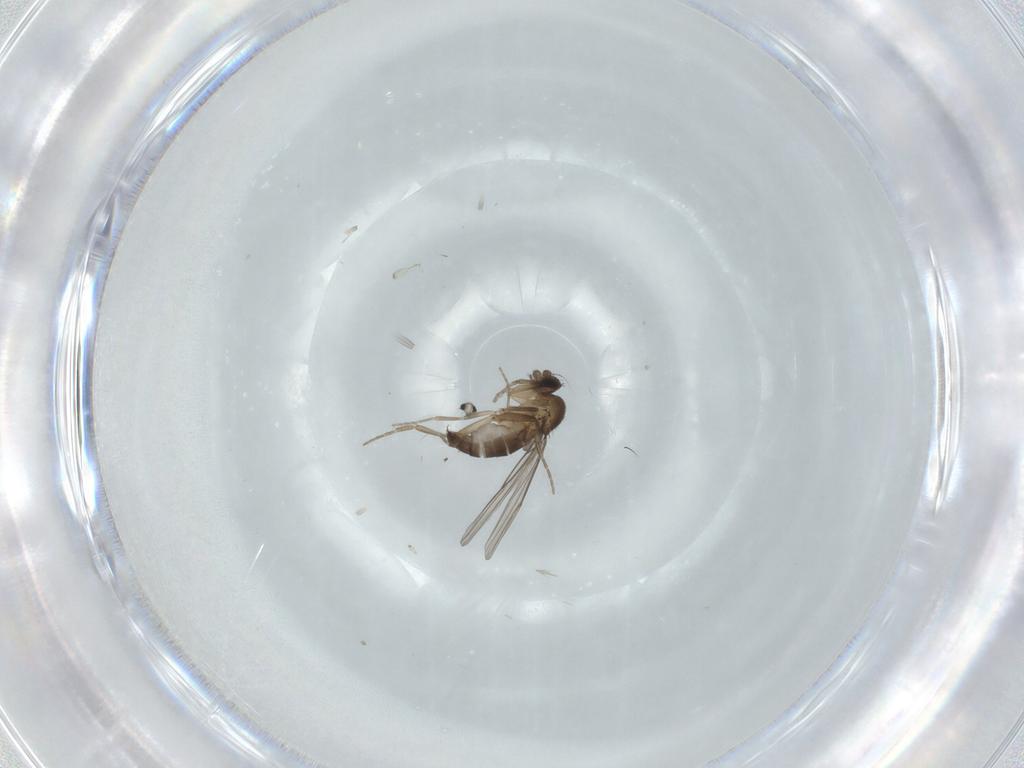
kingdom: Animalia
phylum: Arthropoda
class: Insecta
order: Diptera
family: Phoridae
